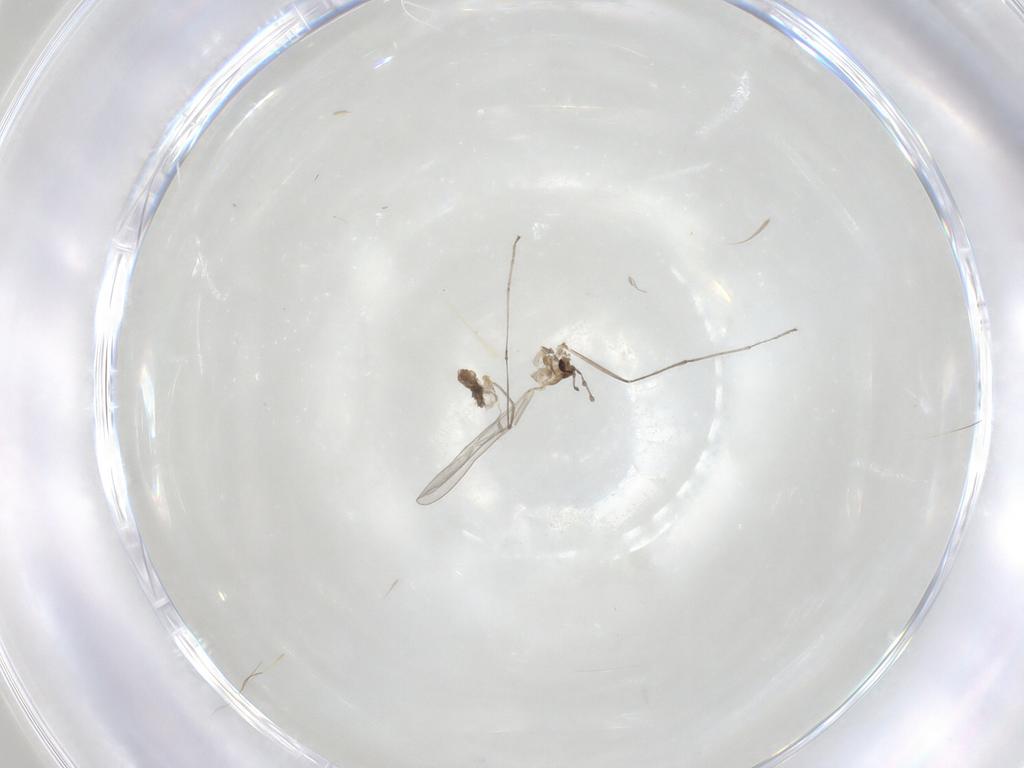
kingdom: Animalia
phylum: Arthropoda
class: Insecta
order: Diptera
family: Cecidomyiidae
